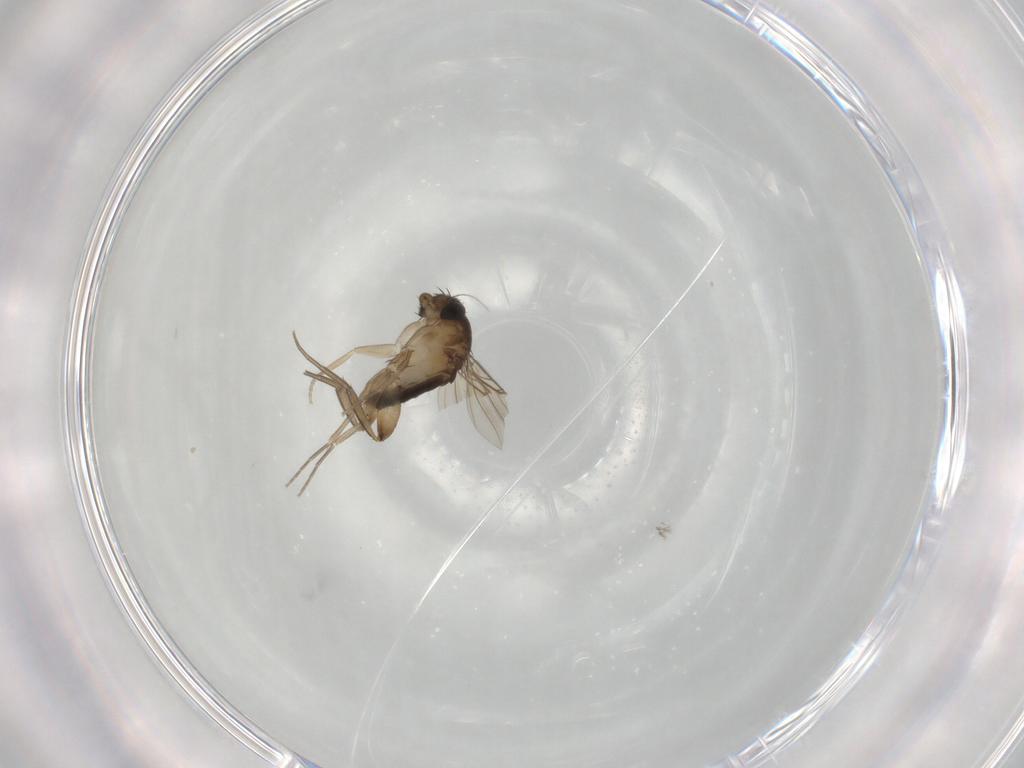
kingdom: Animalia
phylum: Arthropoda
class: Insecta
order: Diptera
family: Phoridae
